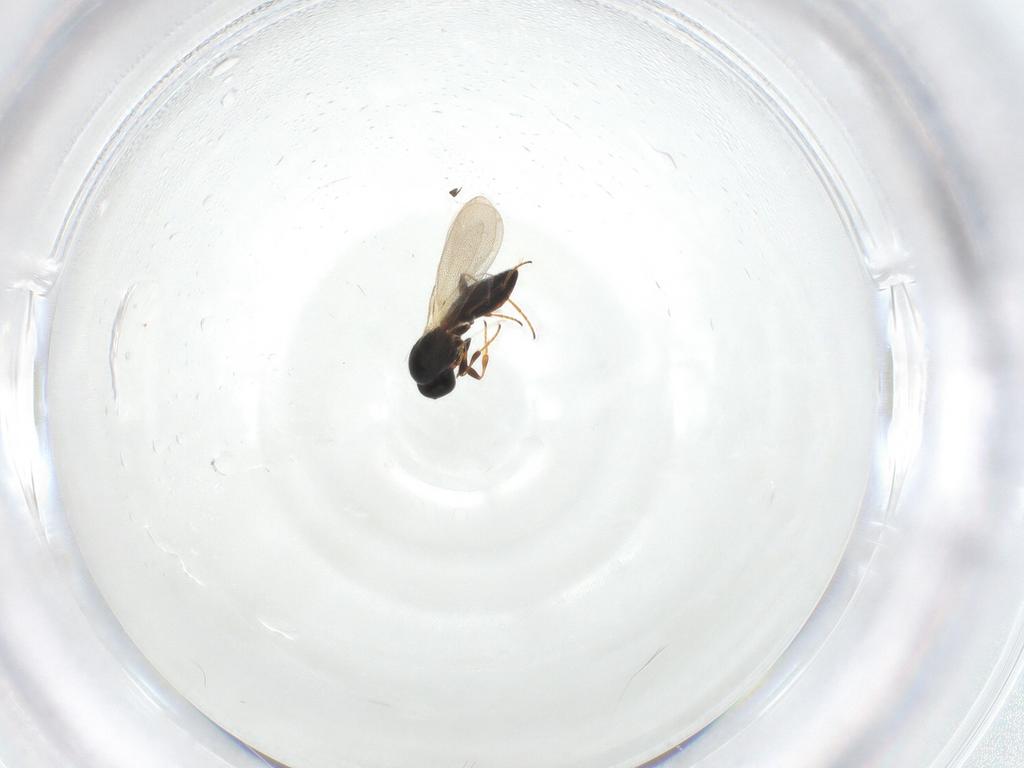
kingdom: Animalia
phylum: Arthropoda
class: Insecta
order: Hymenoptera
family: Platygastridae
